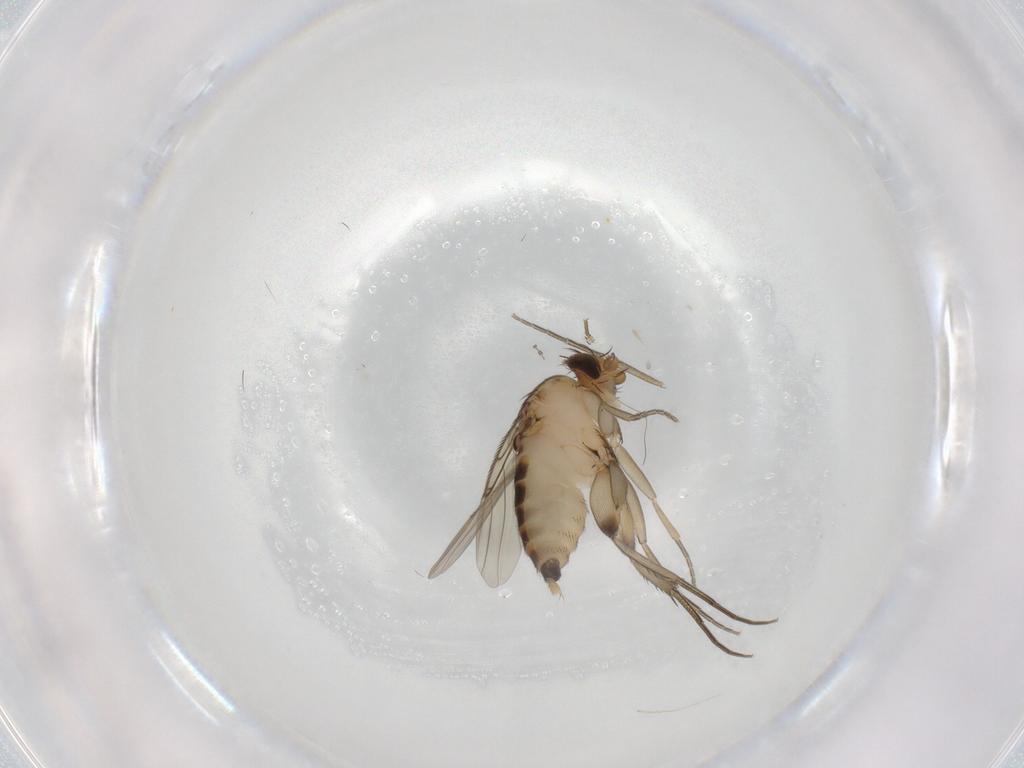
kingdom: Animalia
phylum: Arthropoda
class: Insecta
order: Diptera
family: Cecidomyiidae
